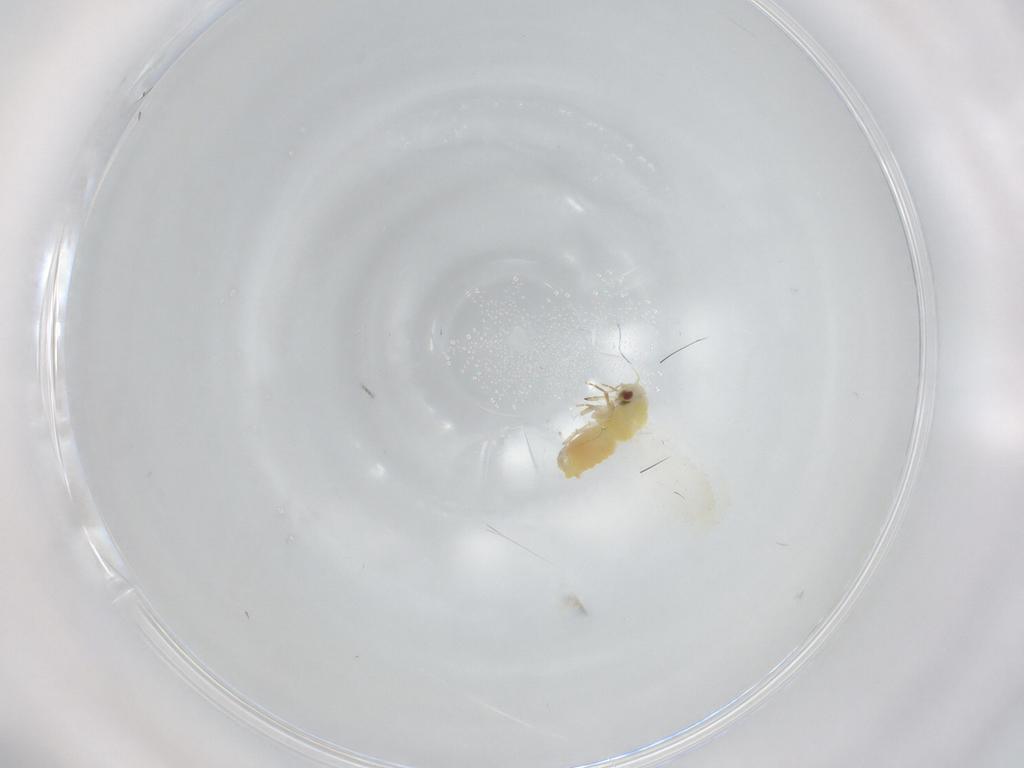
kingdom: Animalia
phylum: Arthropoda
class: Insecta
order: Hemiptera
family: Aleyrodidae
